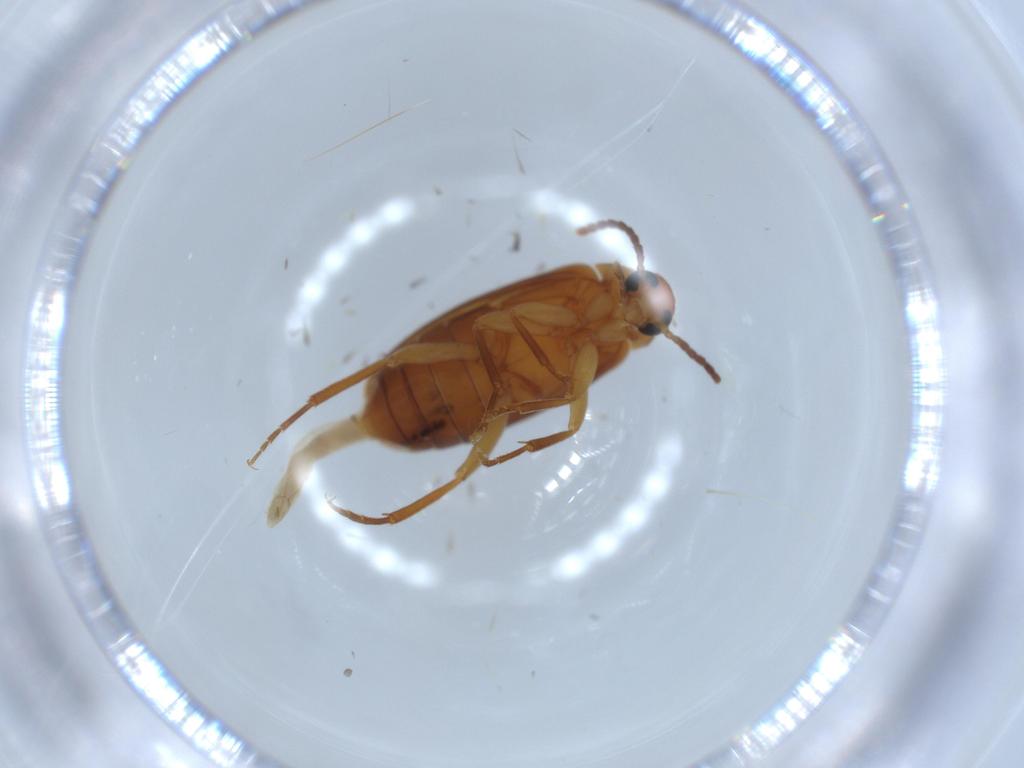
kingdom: Animalia
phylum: Arthropoda
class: Insecta
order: Coleoptera
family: Scraptiidae
